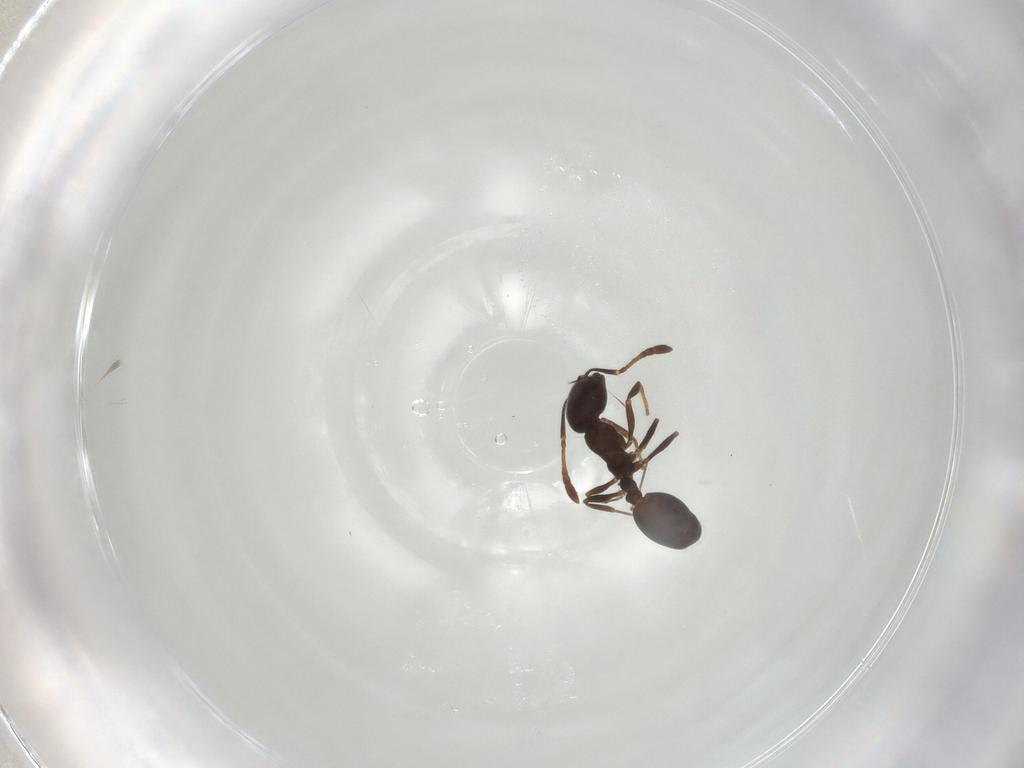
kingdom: Animalia
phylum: Arthropoda
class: Insecta
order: Hymenoptera
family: Formicidae
